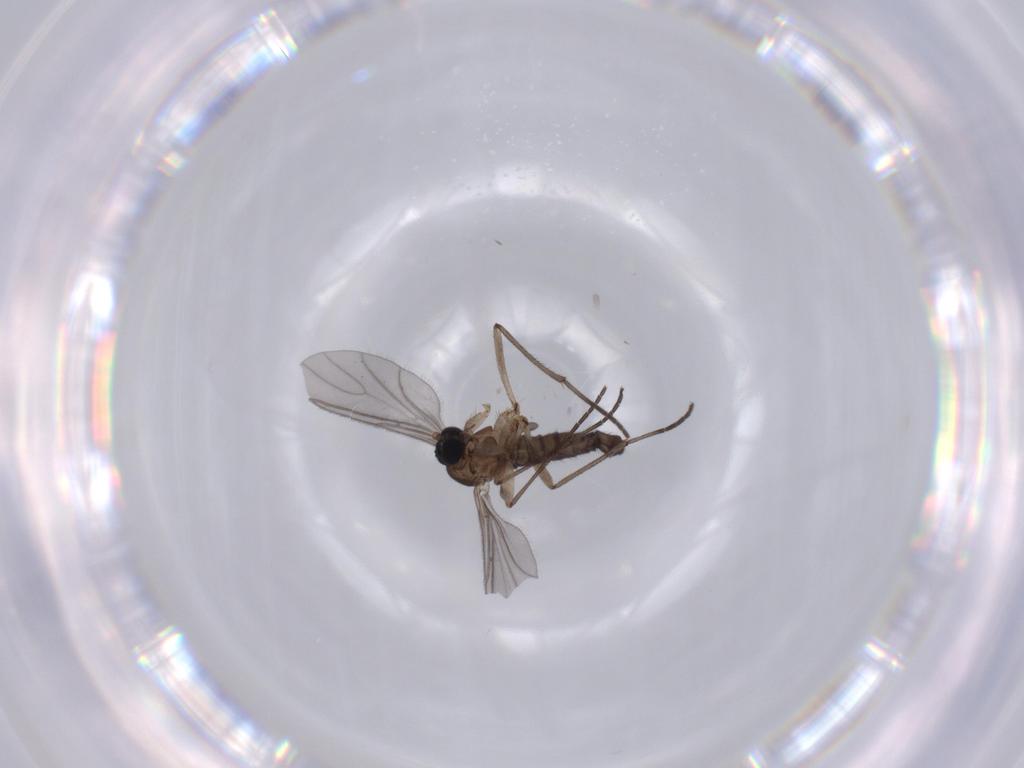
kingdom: Animalia
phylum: Arthropoda
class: Insecta
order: Diptera
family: Sciaridae
